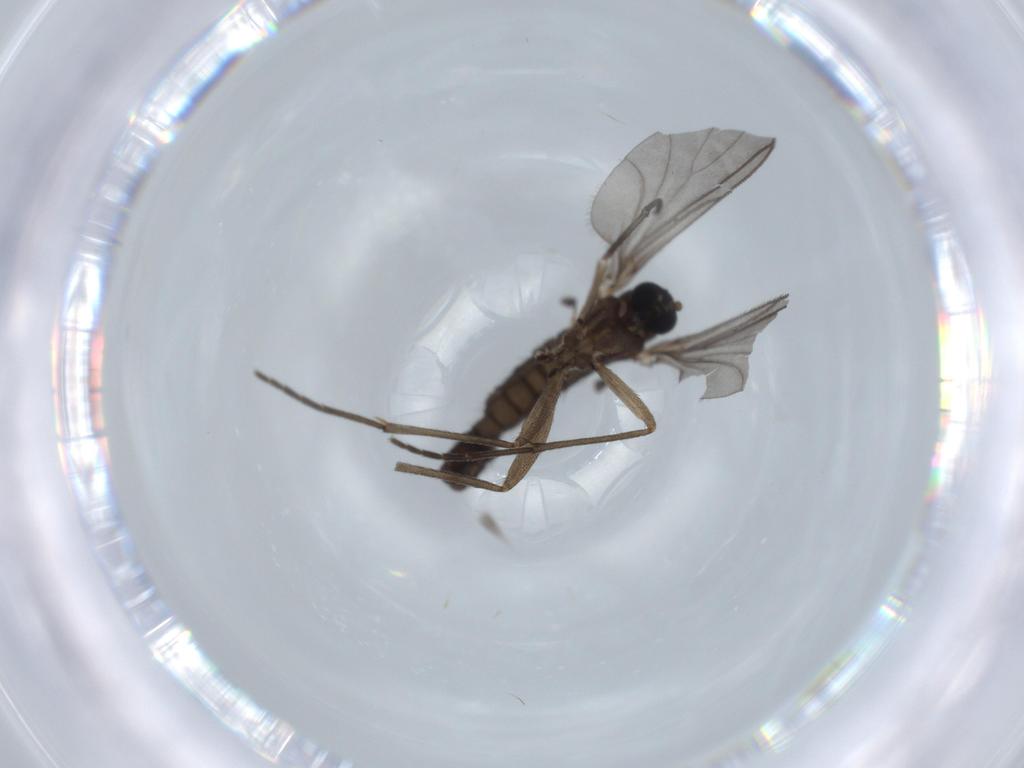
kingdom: Animalia
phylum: Arthropoda
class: Insecta
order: Diptera
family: Sciaridae
